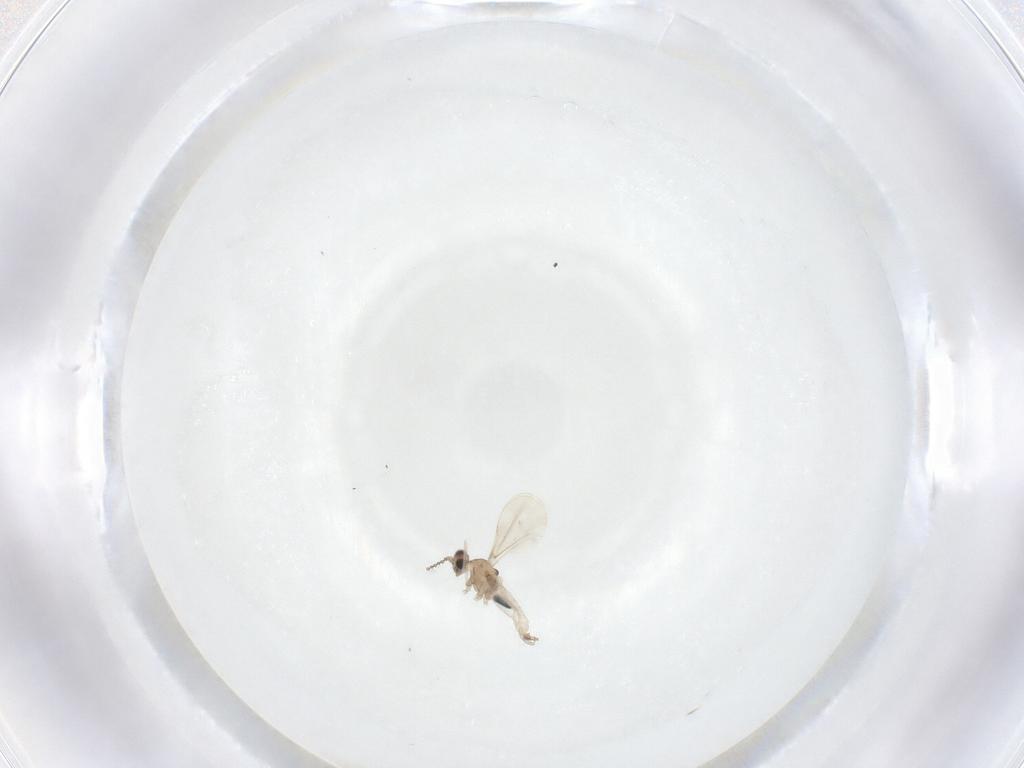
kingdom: Animalia
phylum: Arthropoda
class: Insecta
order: Diptera
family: Cecidomyiidae
